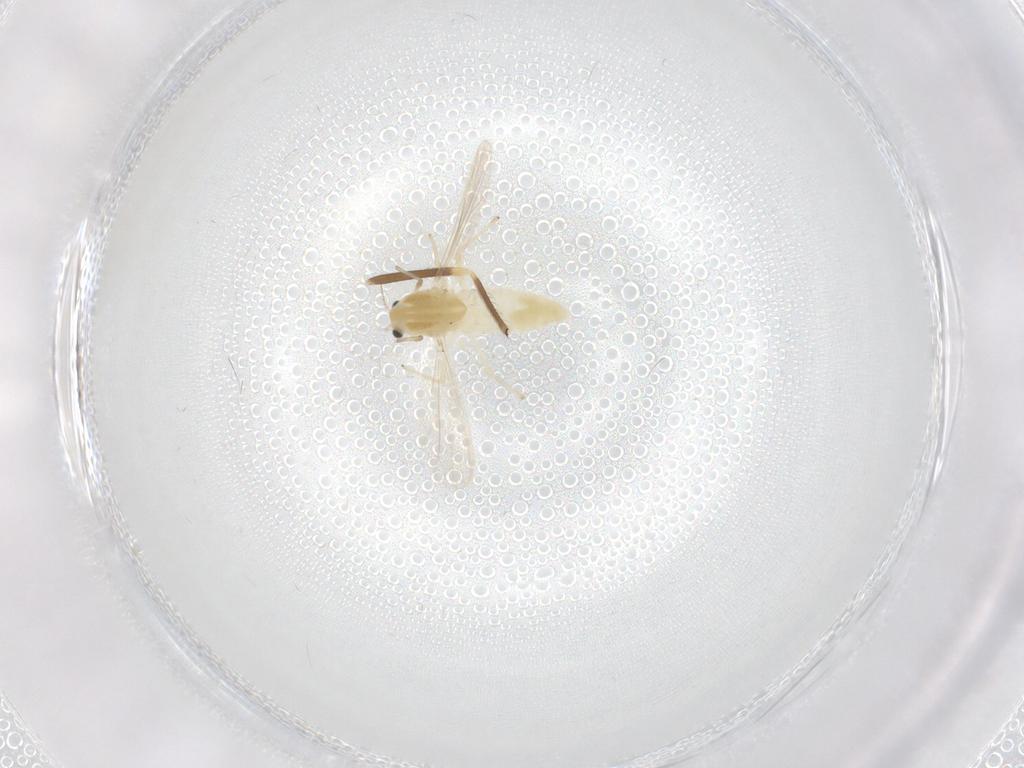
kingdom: Animalia
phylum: Arthropoda
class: Insecta
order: Diptera
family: Chironomidae
